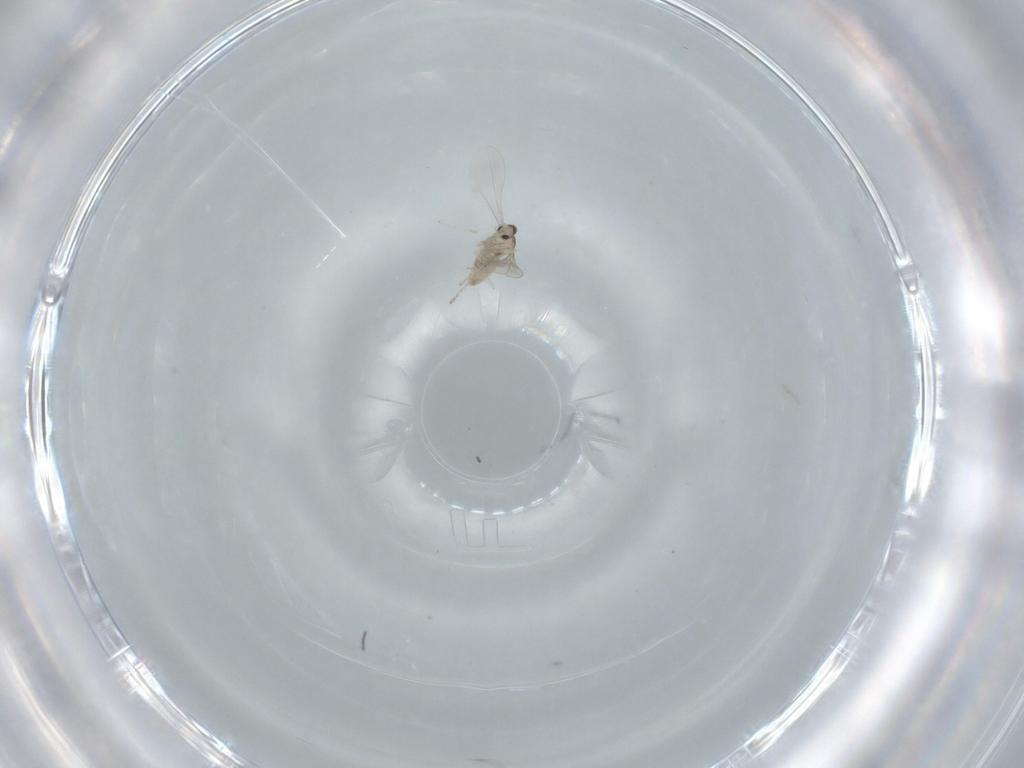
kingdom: Animalia
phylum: Arthropoda
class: Insecta
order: Diptera
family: Cecidomyiidae
